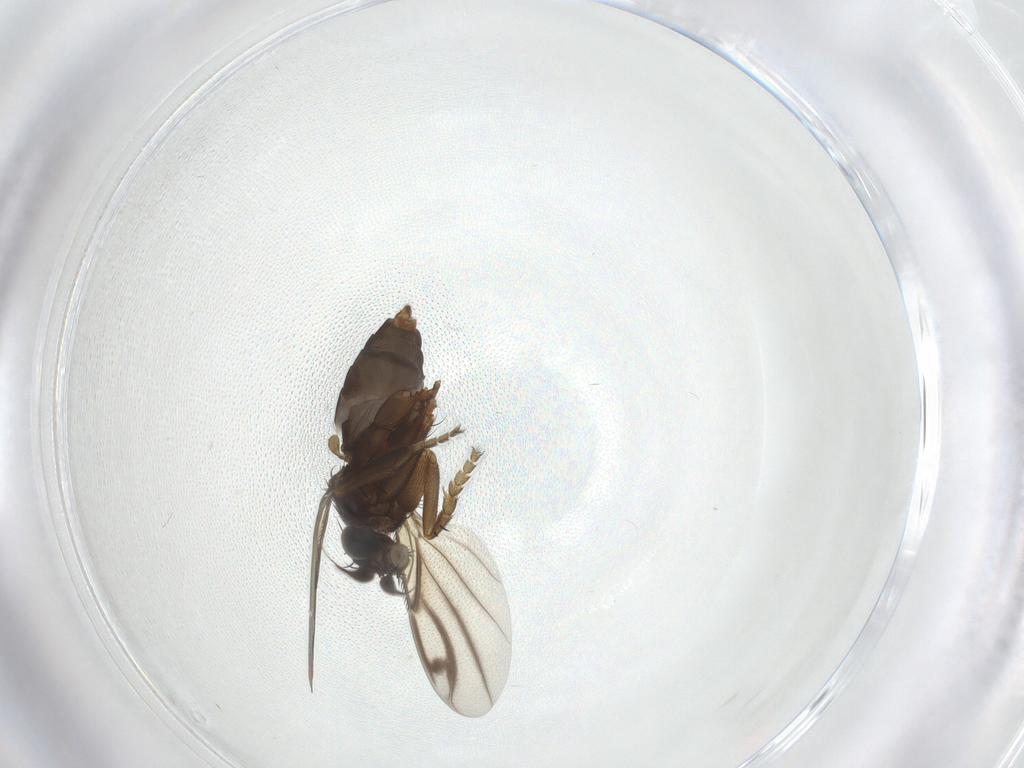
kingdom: Animalia
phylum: Arthropoda
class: Insecta
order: Diptera
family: Phoridae
